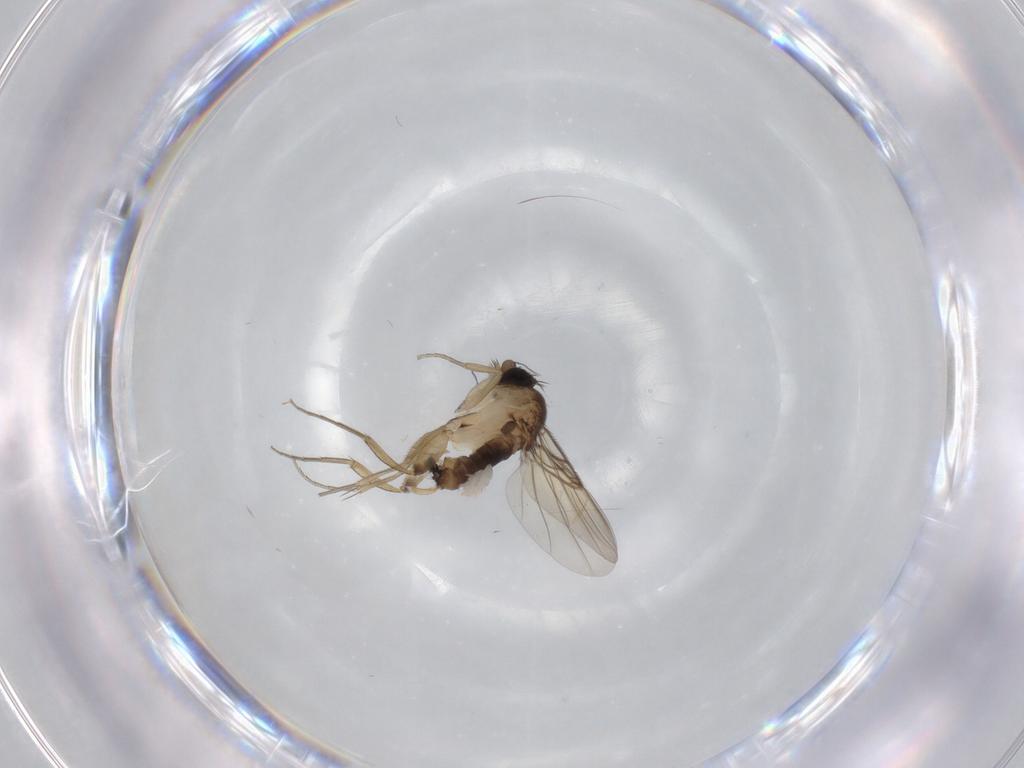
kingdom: Animalia
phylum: Arthropoda
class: Insecta
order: Diptera
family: Phoridae
